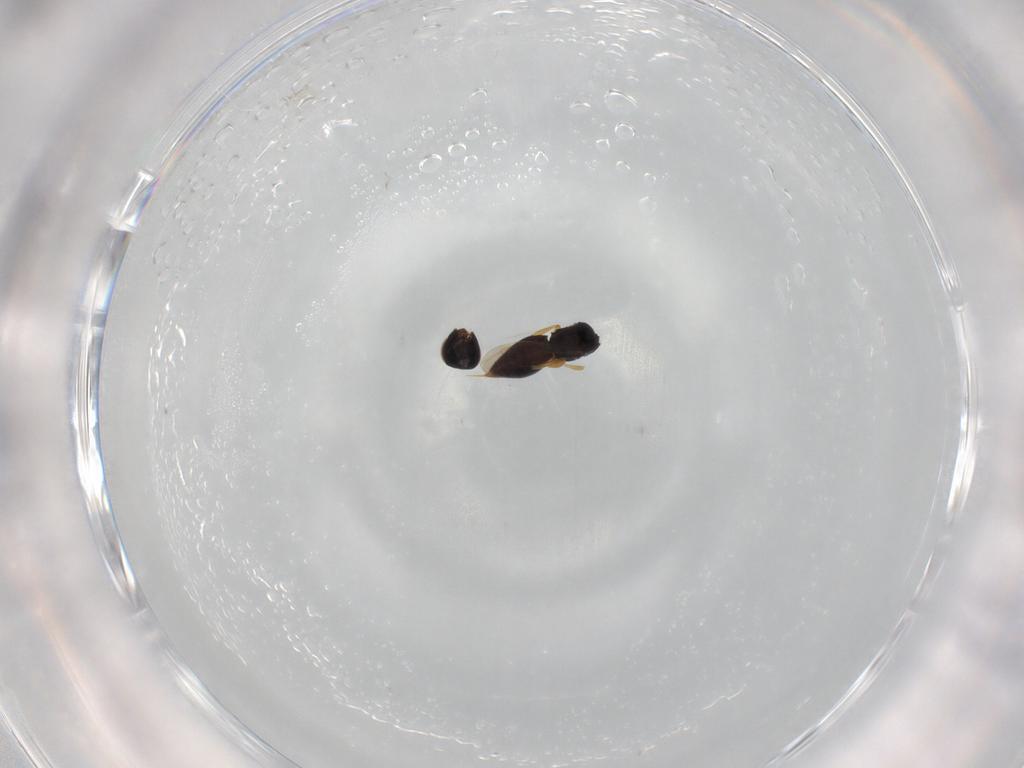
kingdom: Animalia
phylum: Arthropoda
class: Insecta
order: Hymenoptera
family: Ceraphronidae
